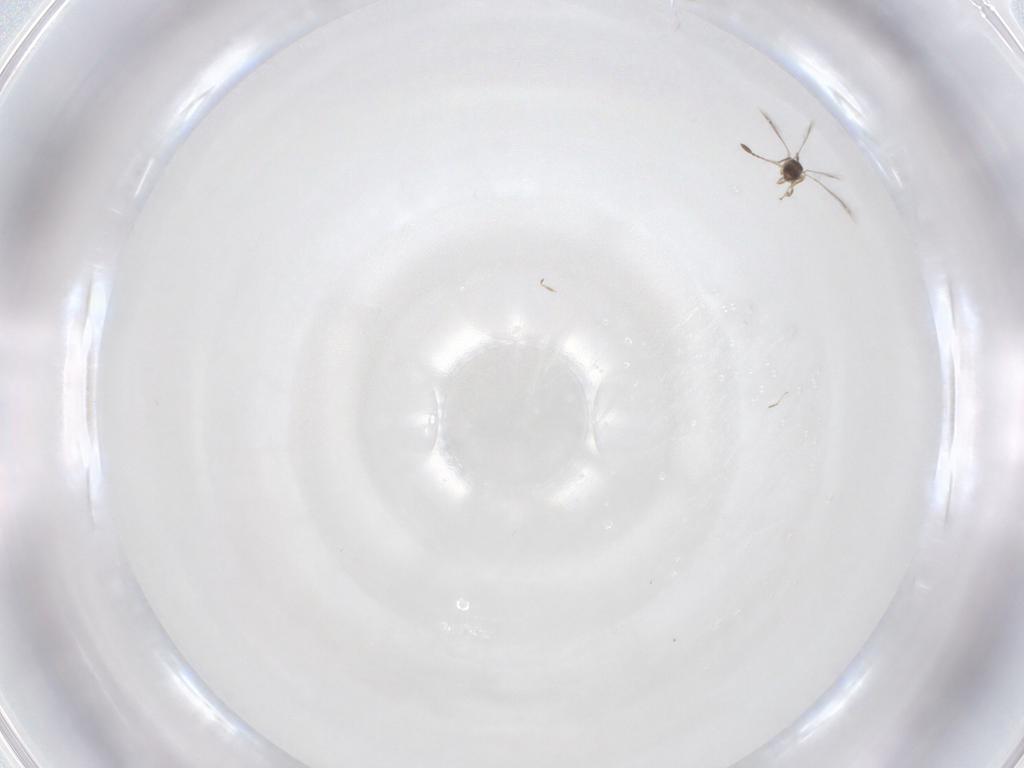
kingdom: Animalia
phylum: Arthropoda
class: Insecta
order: Hymenoptera
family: Mymaridae
